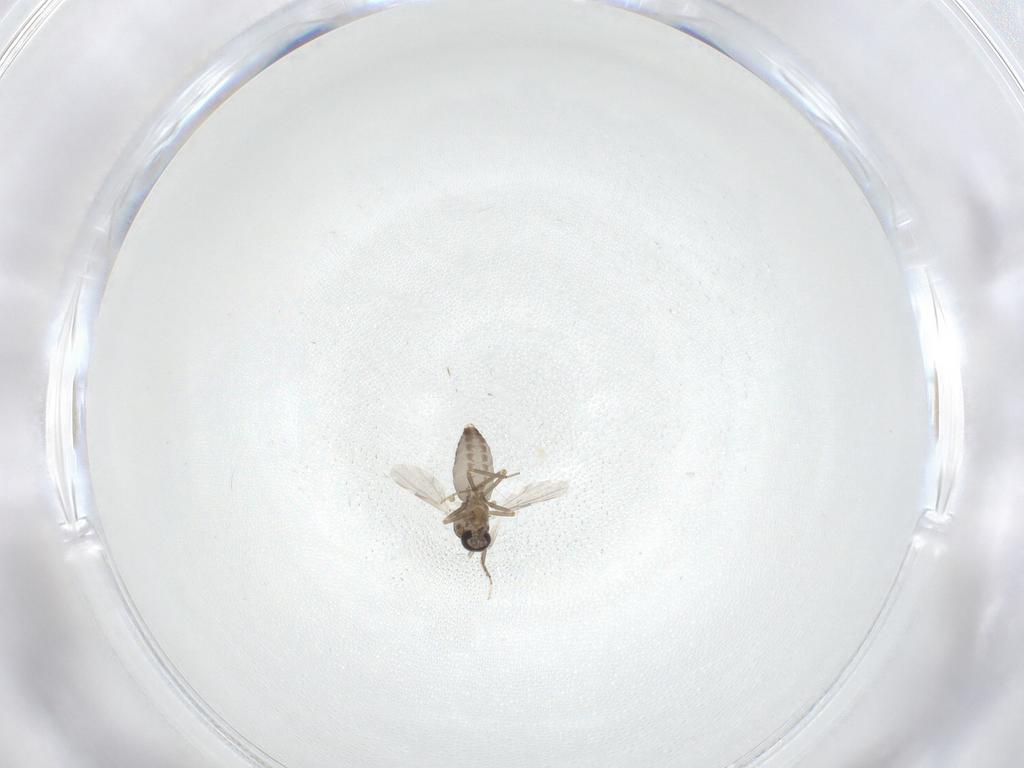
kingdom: Animalia
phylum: Arthropoda
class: Insecta
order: Diptera
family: Ceratopogonidae
